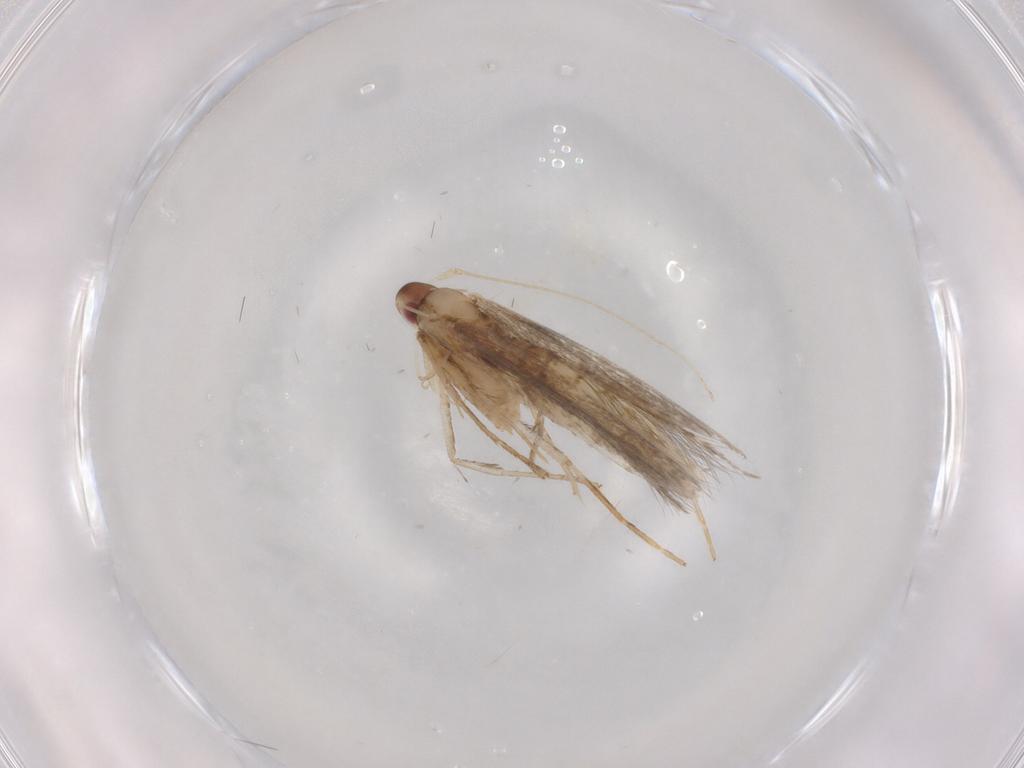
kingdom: Animalia
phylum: Arthropoda
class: Insecta
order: Lepidoptera
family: Cosmopterigidae
